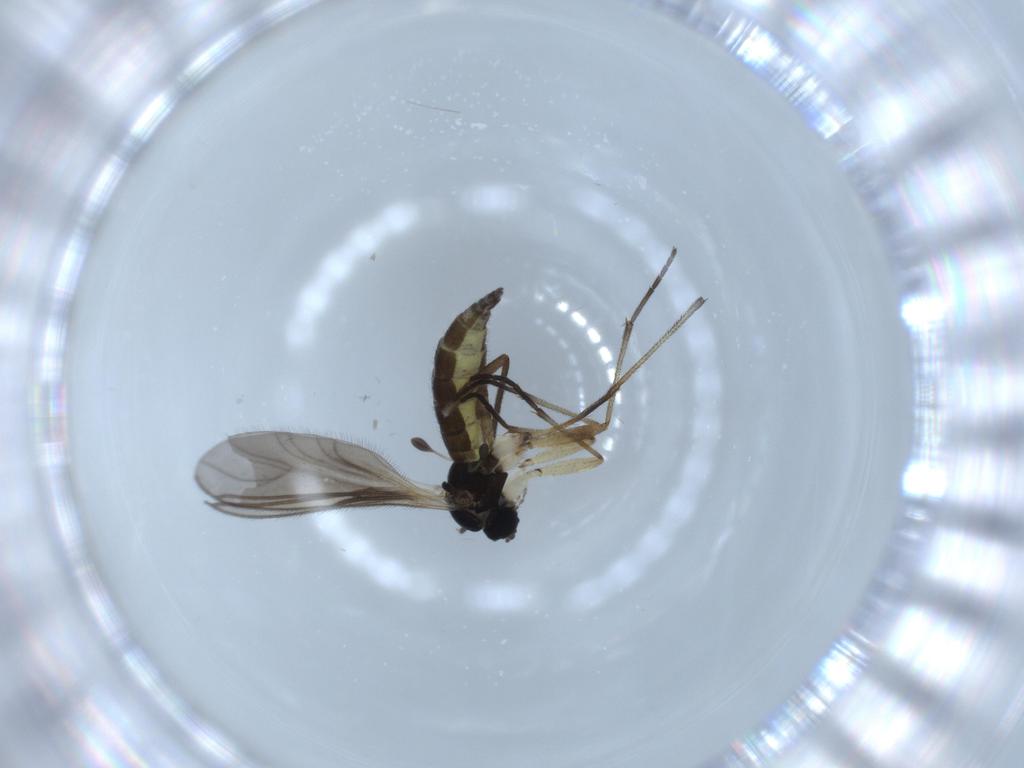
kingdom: Animalia
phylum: Arthropoda
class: Insecta
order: Diptera
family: Sciaridae
